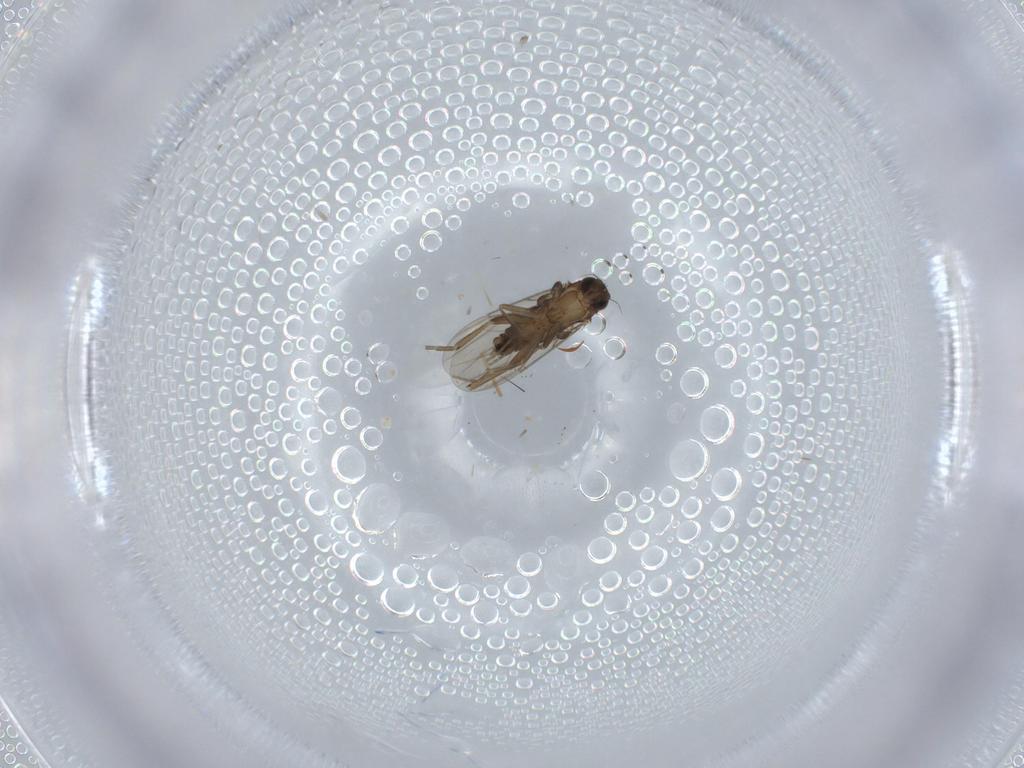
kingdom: Animalia
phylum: Arthropoda
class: Insecta
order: Diptera
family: Phoridae
